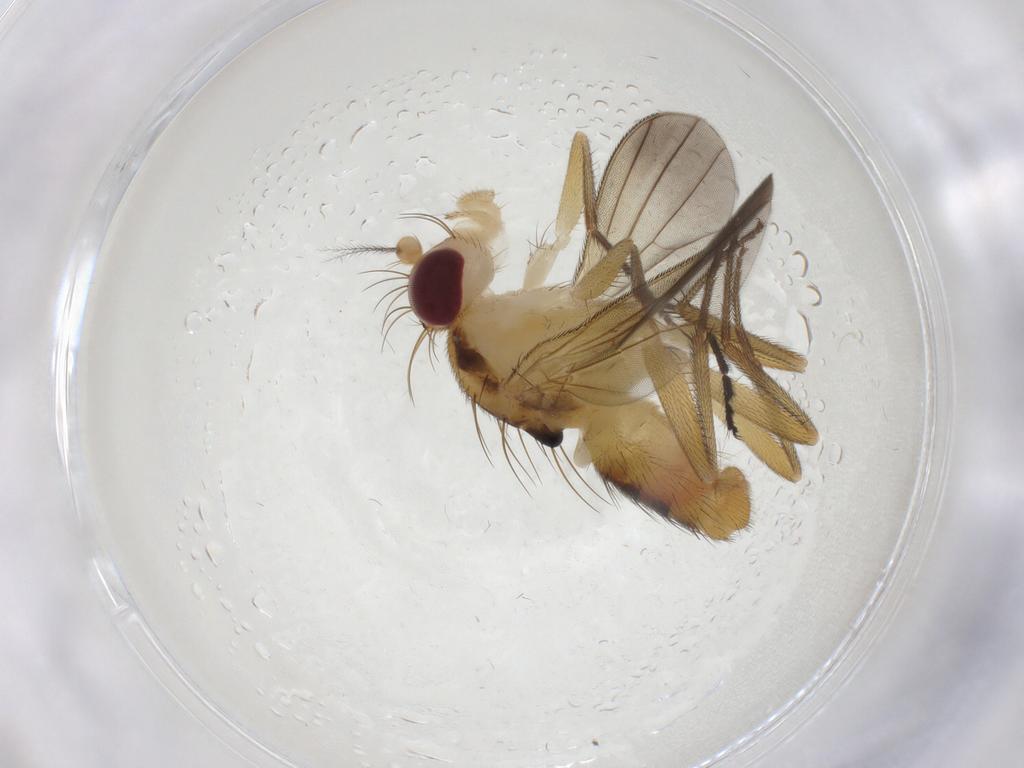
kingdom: Animalia
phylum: Arthropoda
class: Insecta
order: Diptera
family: Clusiidae
